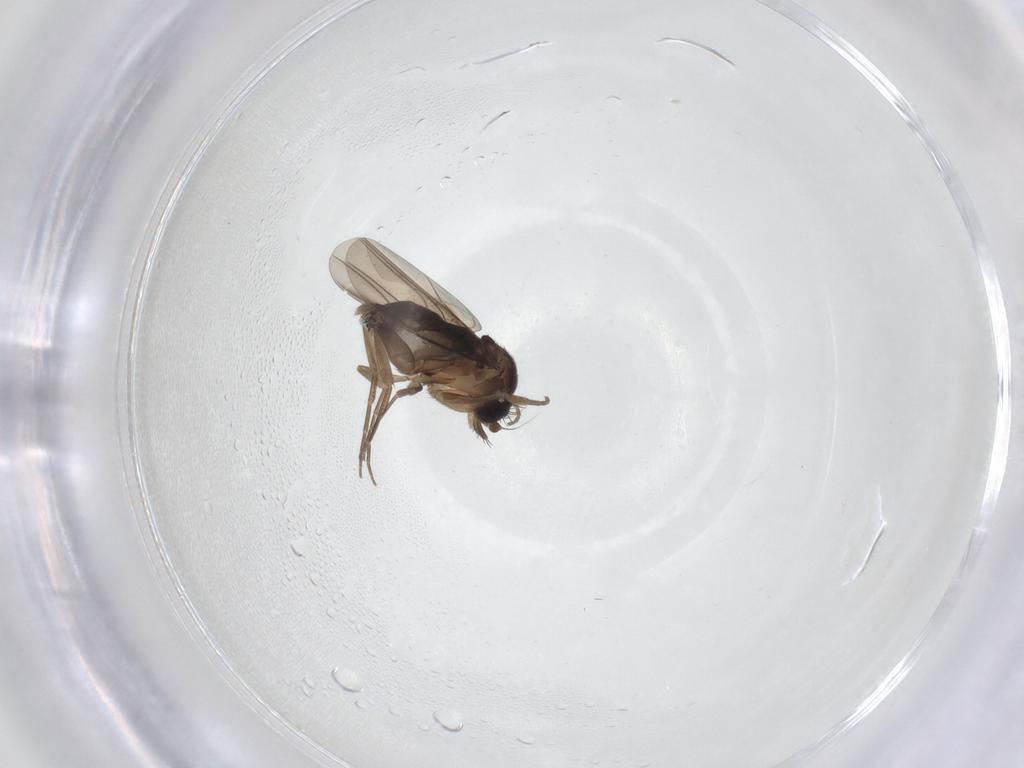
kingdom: Animalia
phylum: Arthropoda
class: Insecta
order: Diptera
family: Phoridae
